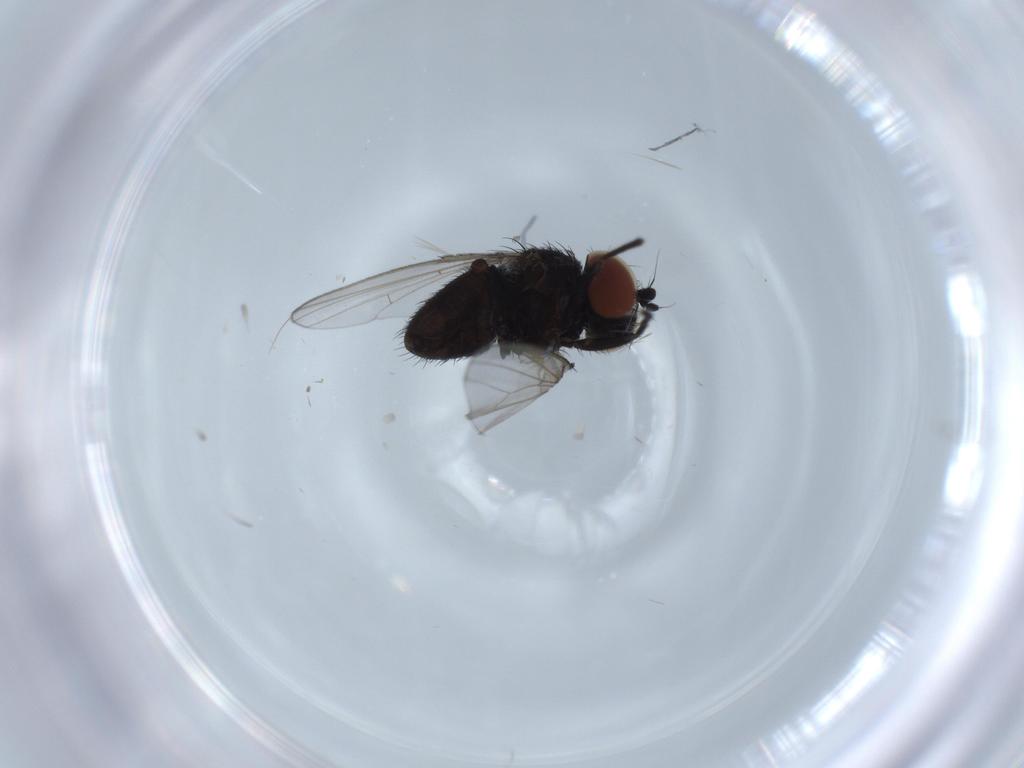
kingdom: Animalia
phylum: Arthropoda
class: Insecta
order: Diptera
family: Milichiidae
